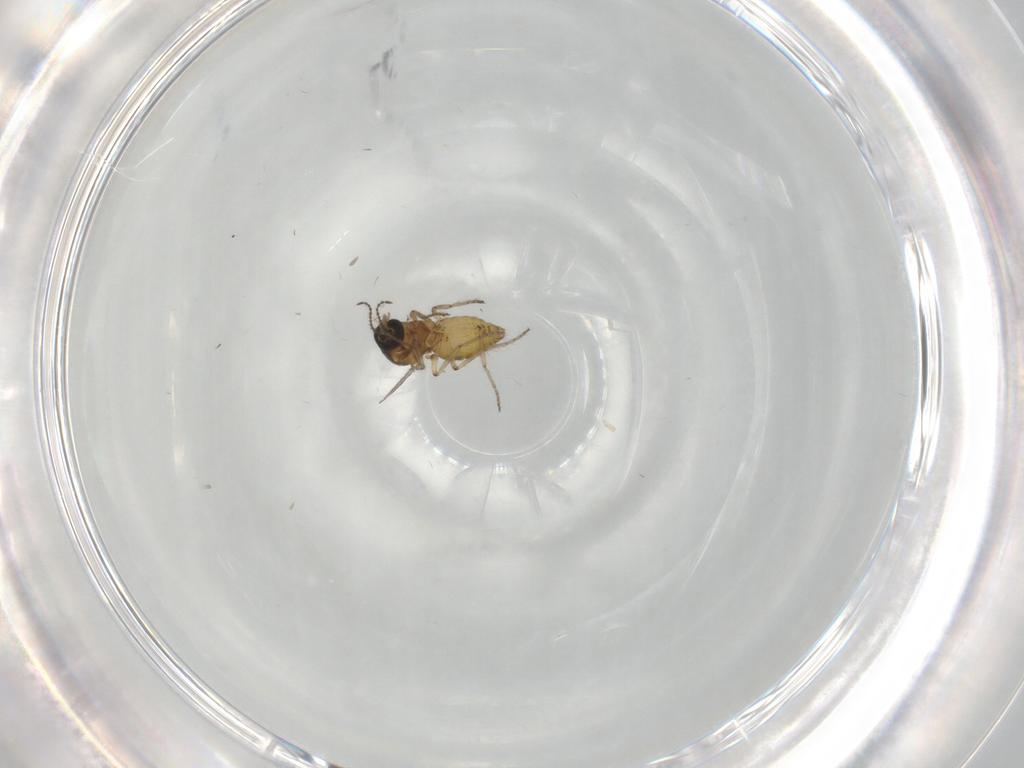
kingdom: Animalia
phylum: Arthropoda
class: Insecta
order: Diptera
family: Ceratopogonidae
